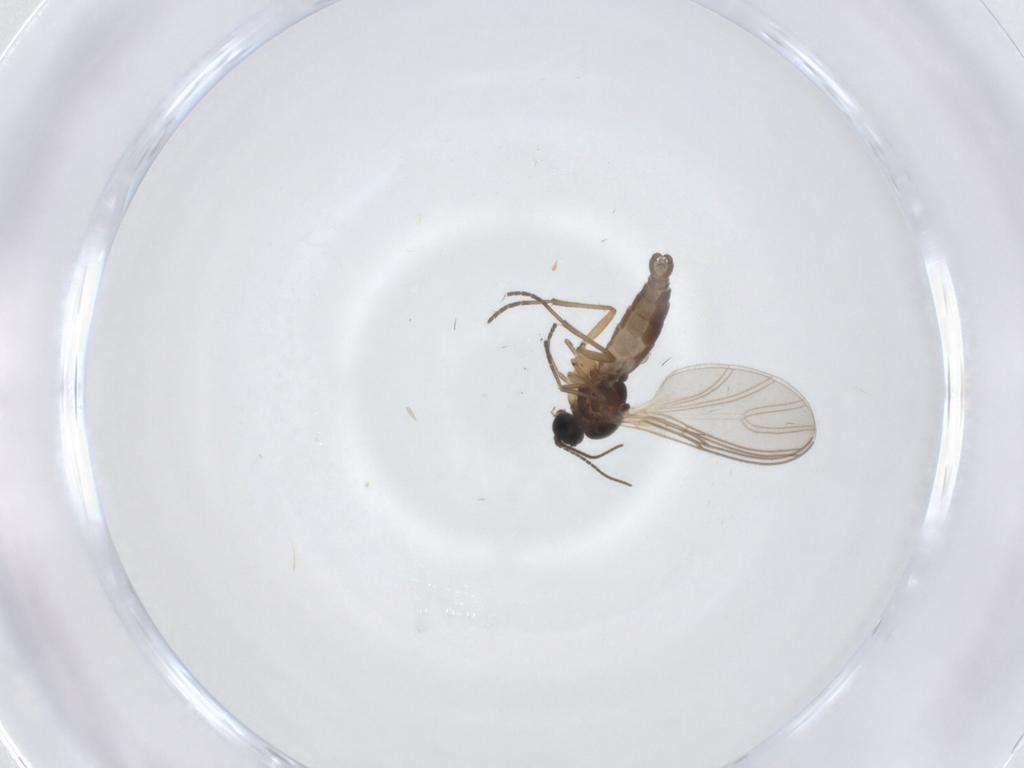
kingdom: Animalia
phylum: Arthropoda
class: Insecta
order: Diptera
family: Sciaridae
